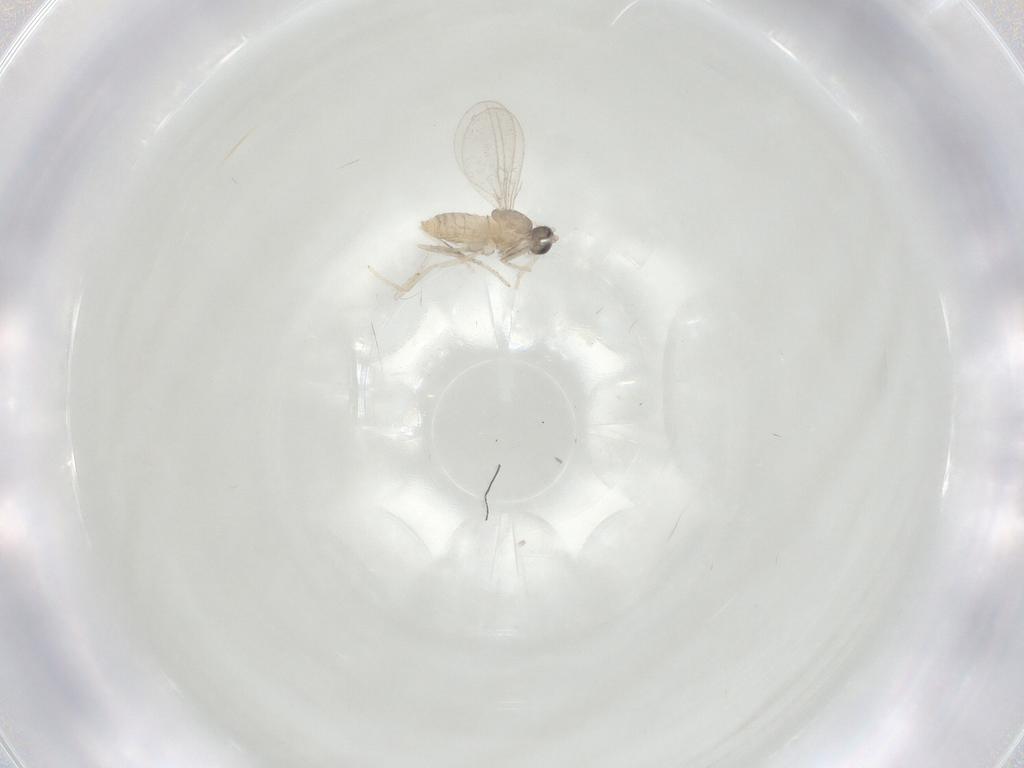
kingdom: Animalia
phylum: Arthropoda
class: Insecta
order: Diptera
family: Cecidomyiidae
